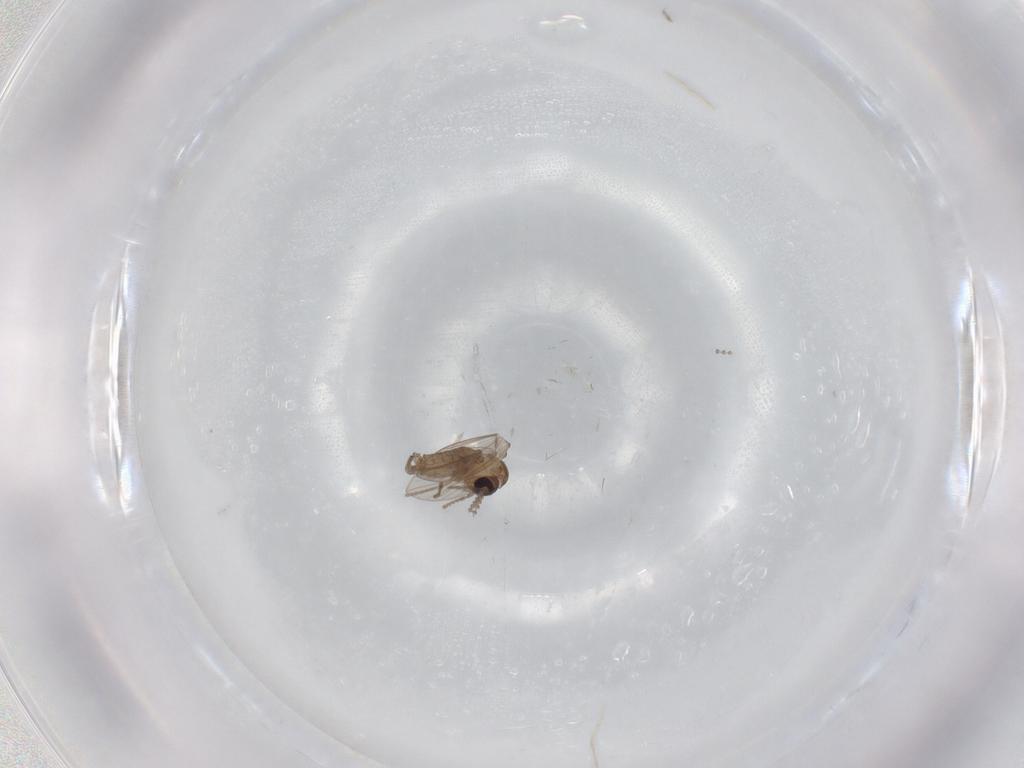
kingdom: Animalia
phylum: Arthropoda
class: Insecta
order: Diptera
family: Psychodidae
